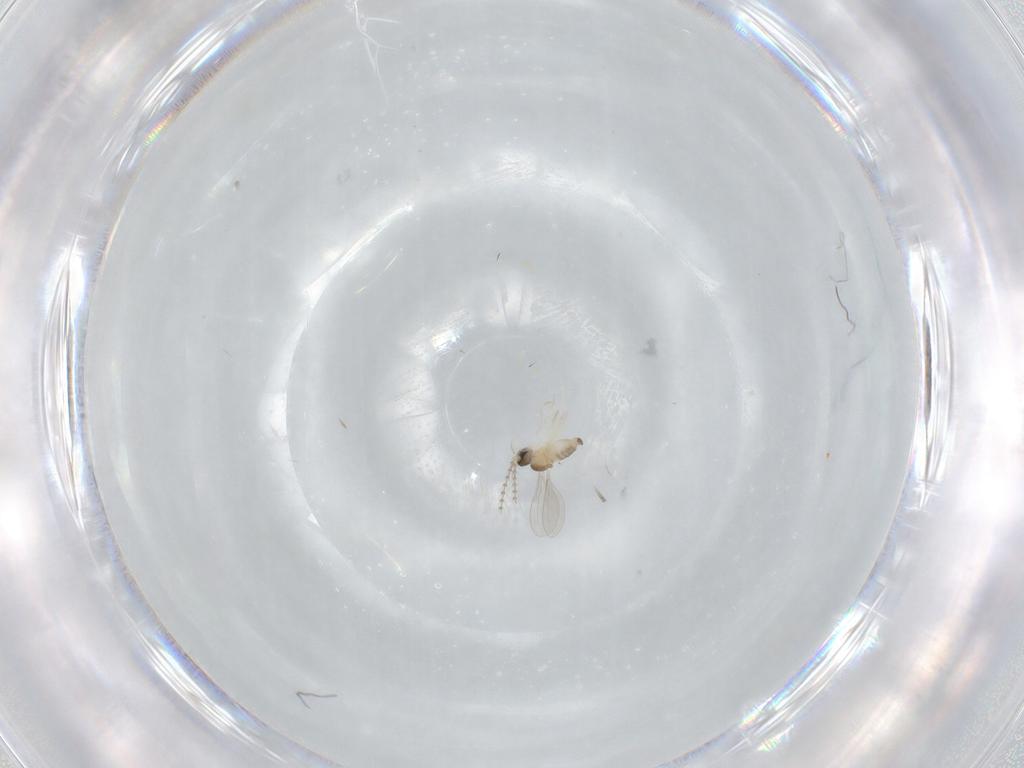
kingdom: Animalia
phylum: Arthropoda
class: Insecta
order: Diptera
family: Cecidomyiidae
